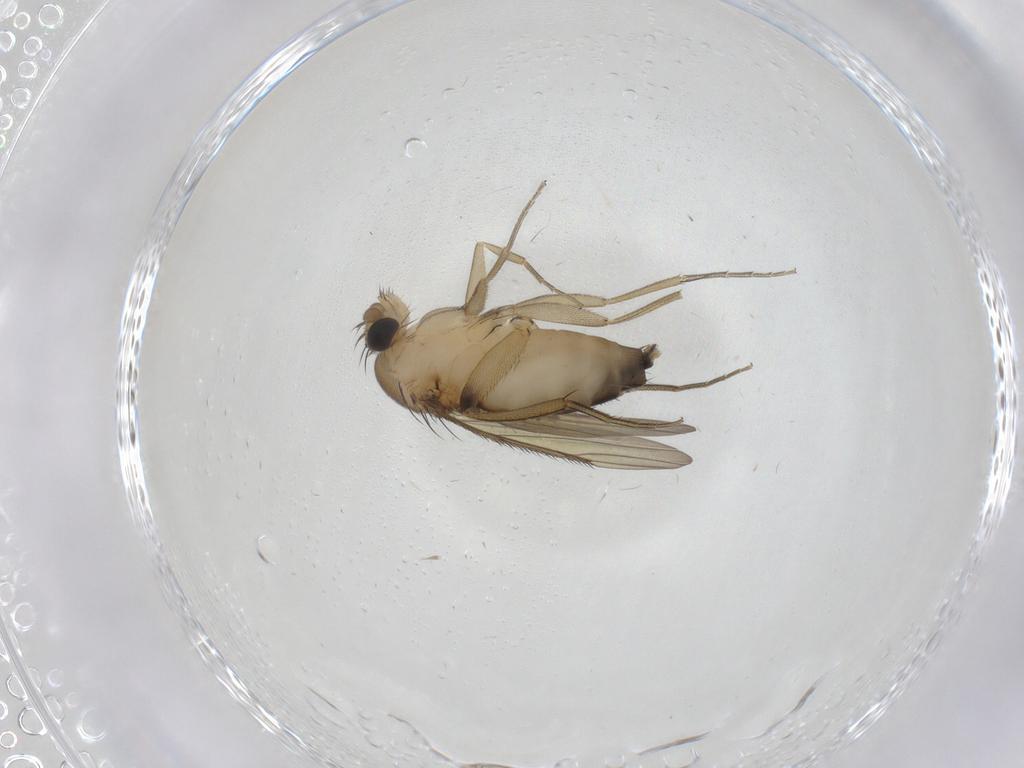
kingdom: Animalia
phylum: Arthropoda
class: Insecta
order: Diptera
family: Phoridae
